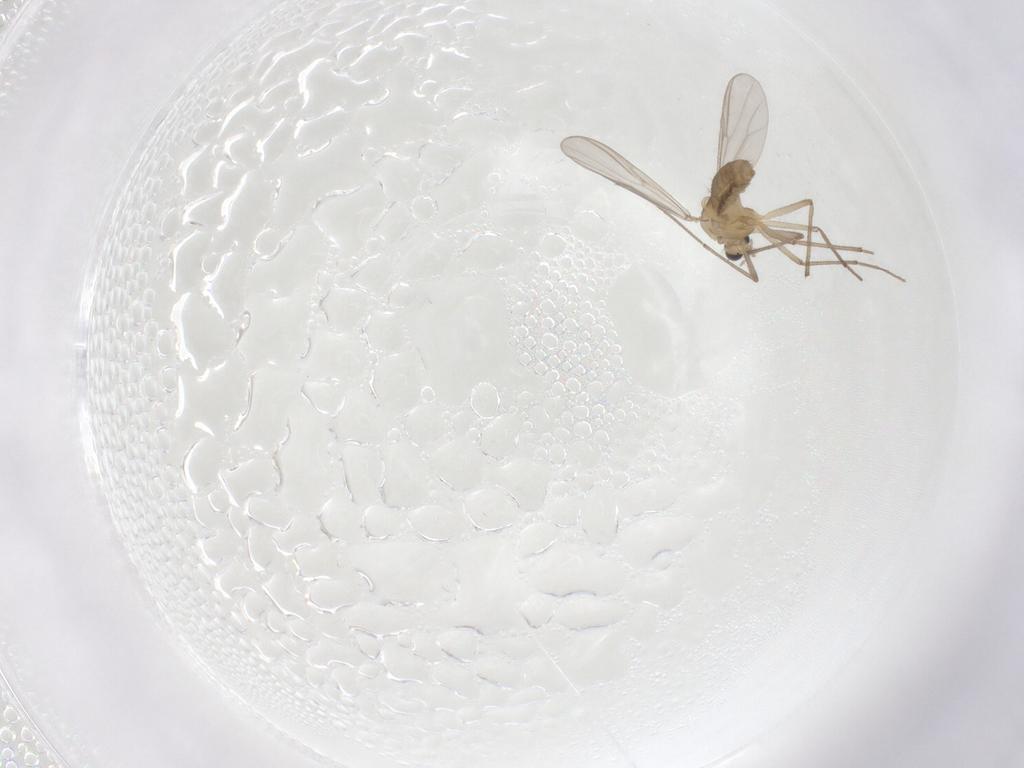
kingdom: Animalia
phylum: Arthropoda
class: Insecta
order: Diptera
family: Chironomidae
